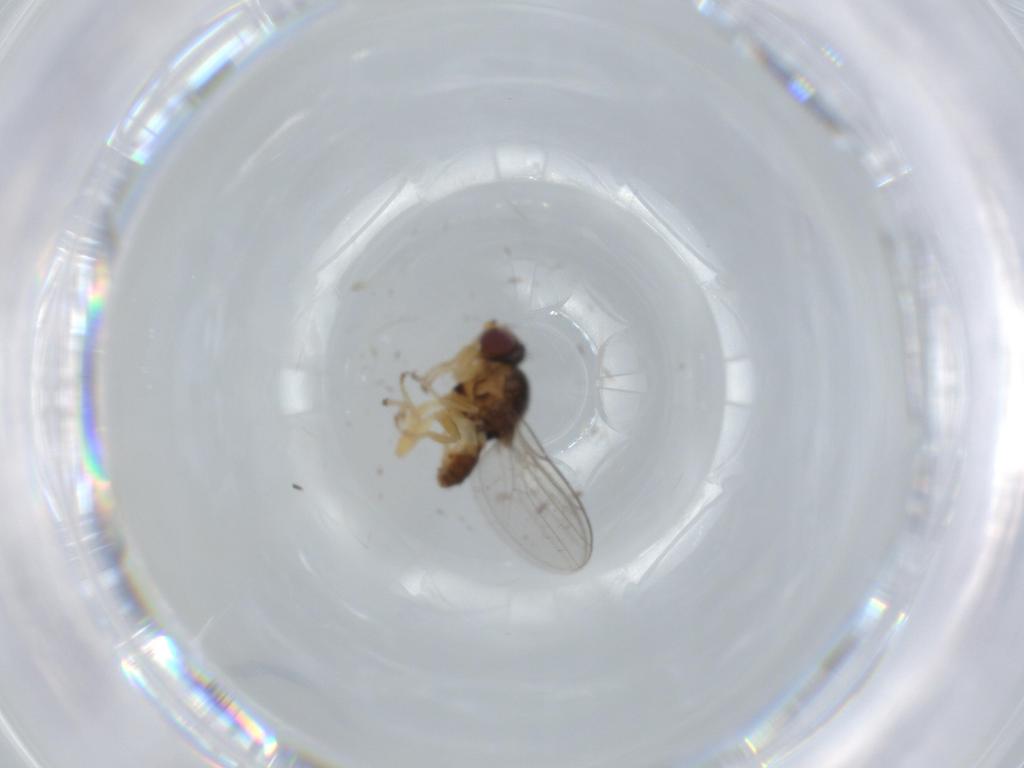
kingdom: Animalia
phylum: Arthropoda
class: Insecta
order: Diptera
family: Chloropidae
